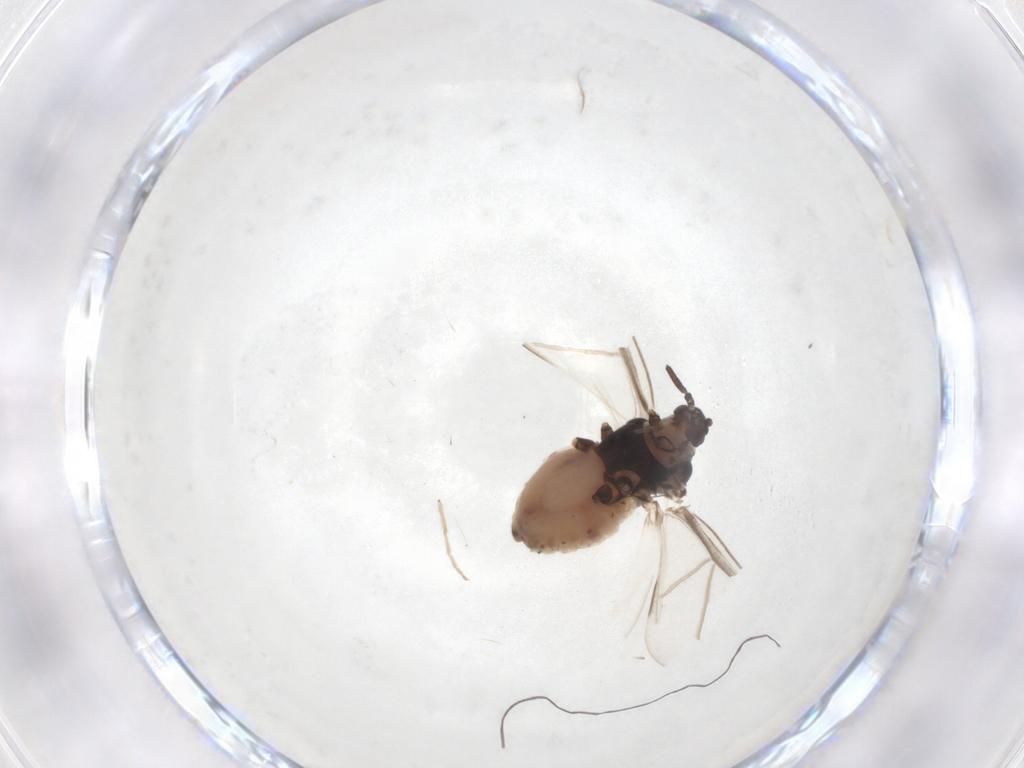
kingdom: Animalia
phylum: Arthropoda
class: Insecta
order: Hemiptera
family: Aphididae
